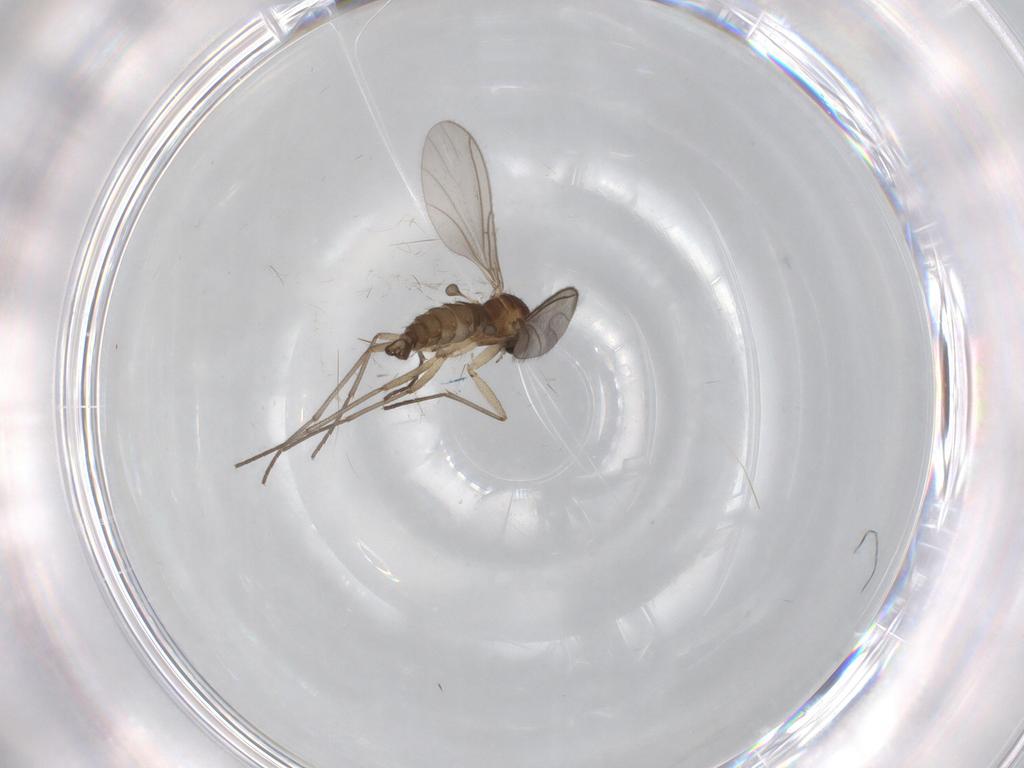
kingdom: Animalia
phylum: Arthropoda
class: Insecta
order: Diptera
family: Sciaridae
